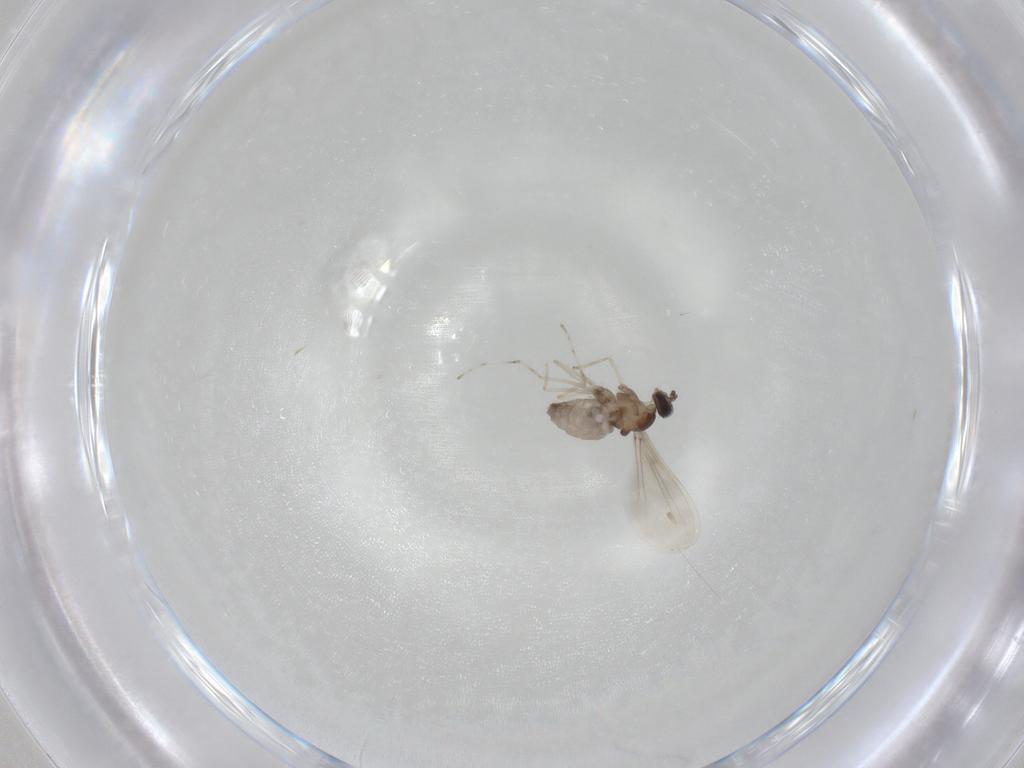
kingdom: Animalia
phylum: Arthropoda
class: Insecta
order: Diptera
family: Cecidomyiidae
